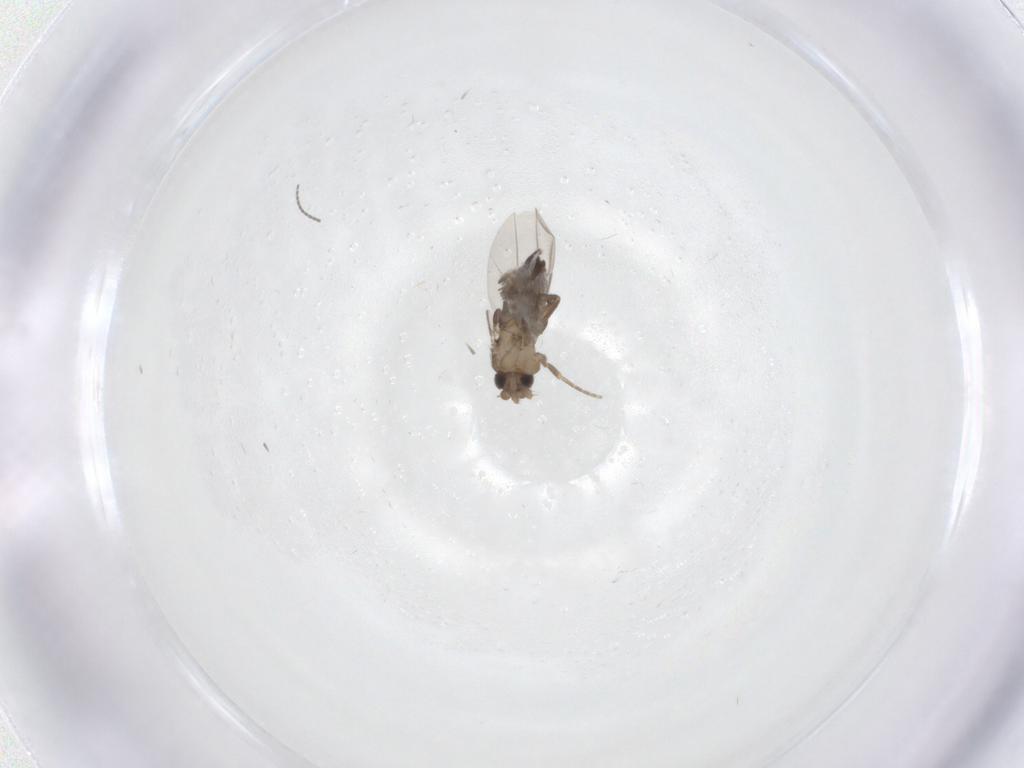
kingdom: Animalia
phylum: Arthropoda
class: Insecta
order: Diptera
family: Phoridae
